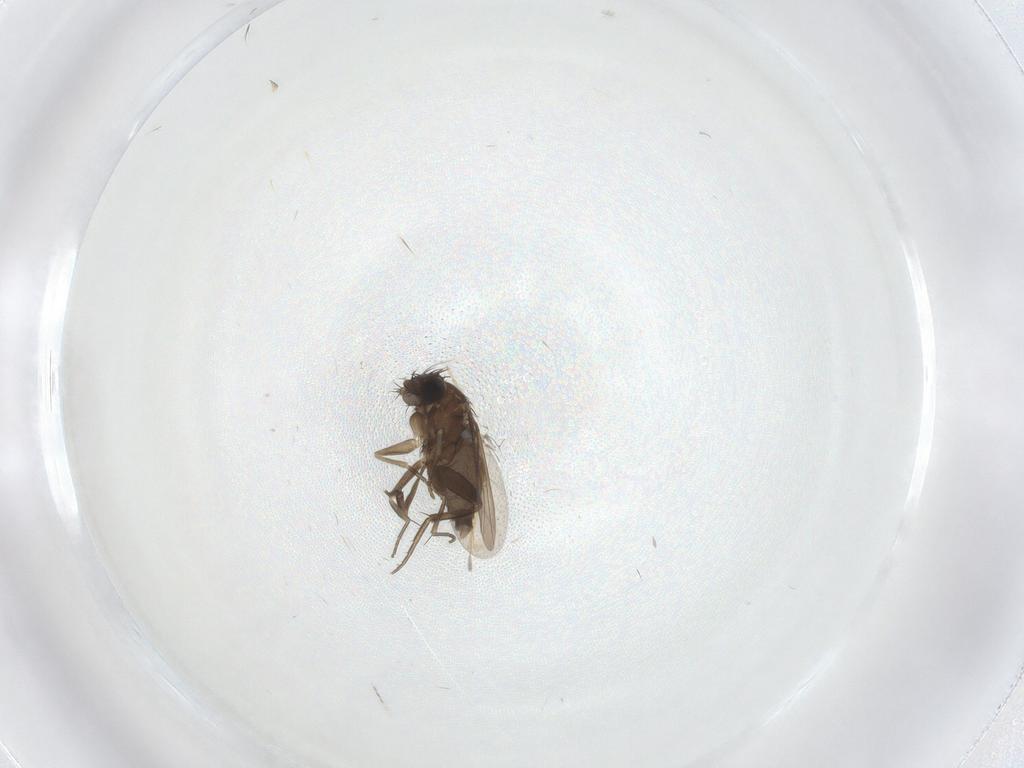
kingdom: Animalia
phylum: Arthropoda
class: Insecta
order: Diptera
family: Phoridae
